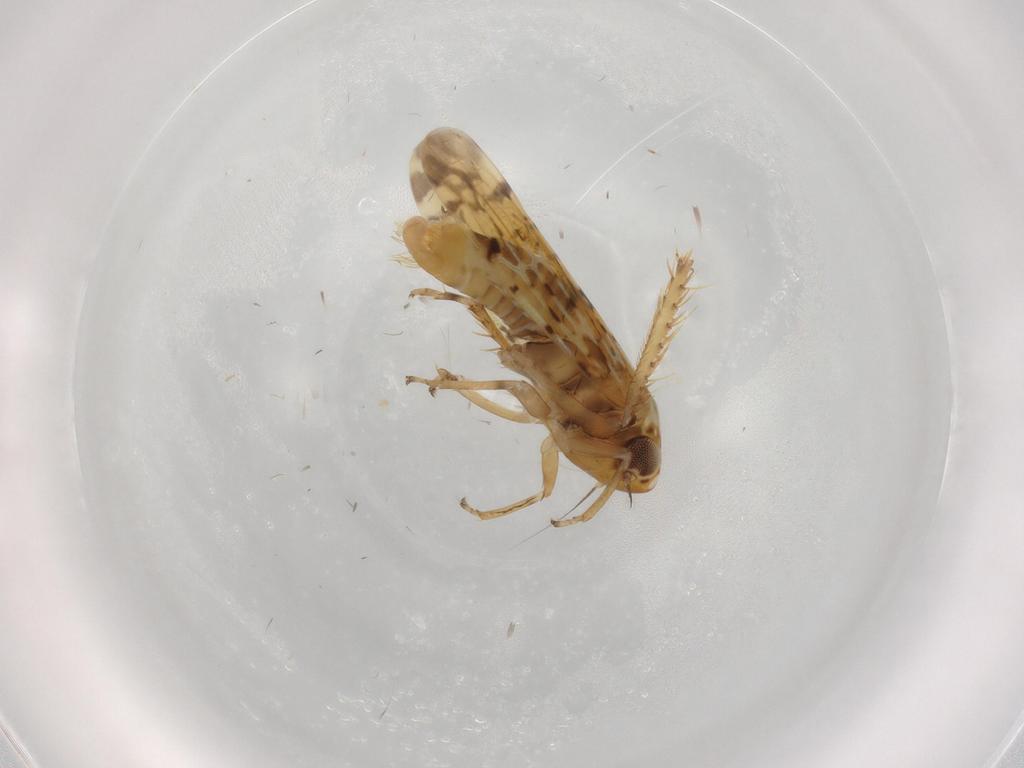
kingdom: Animalia
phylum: Arthropoda
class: Insecta
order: Hemiptera
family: Cicadellidae
